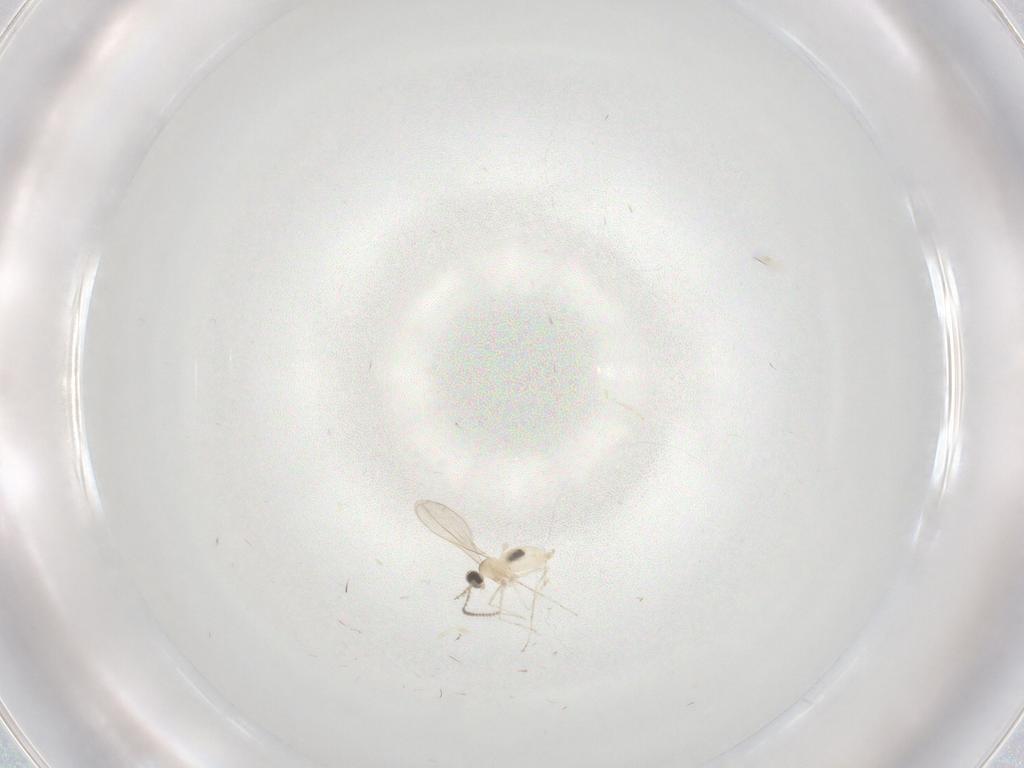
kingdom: Animalia
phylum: Arthropoda
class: Insecta
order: Diptera
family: Cecidomyiidae
